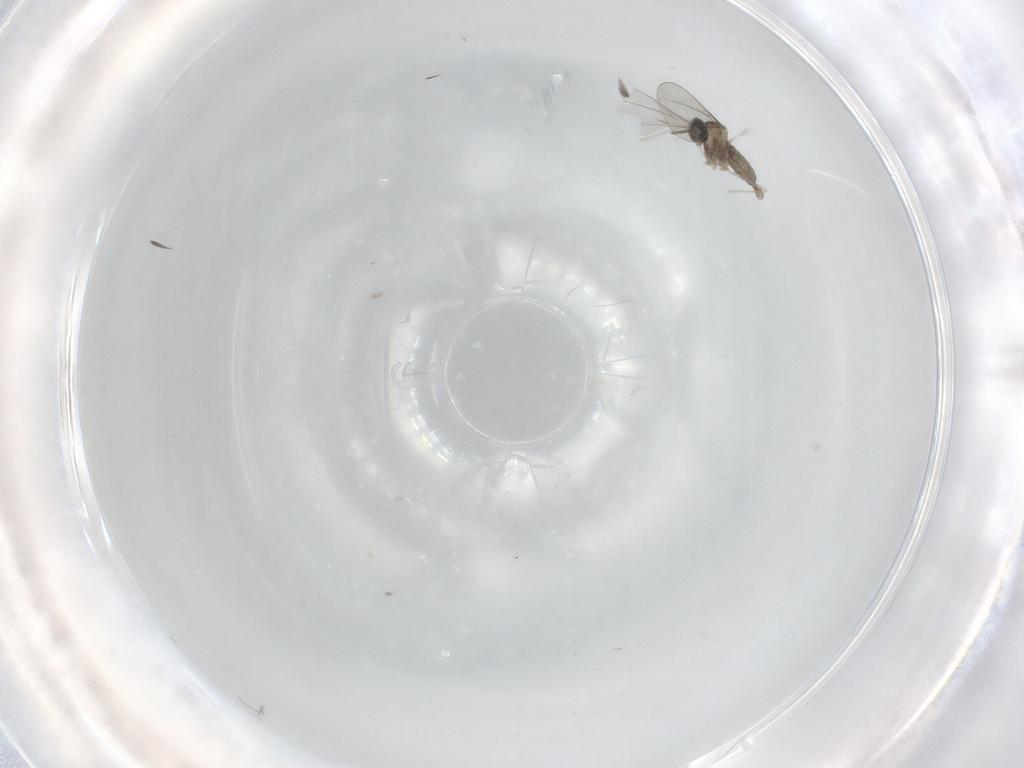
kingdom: Animalia
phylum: Arthropoda
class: Insecta
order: Diptera
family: Cecidomyiidae
